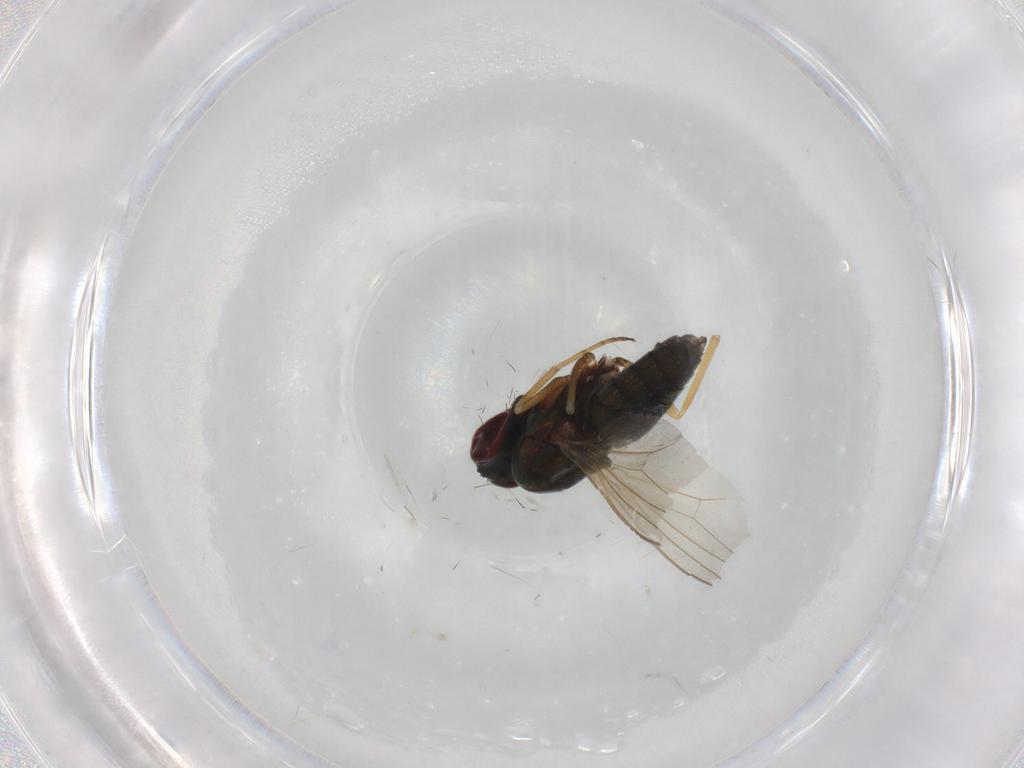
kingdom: Animalia
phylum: Arthropoda
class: Insecta
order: Diptera
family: Dolichopodidae
